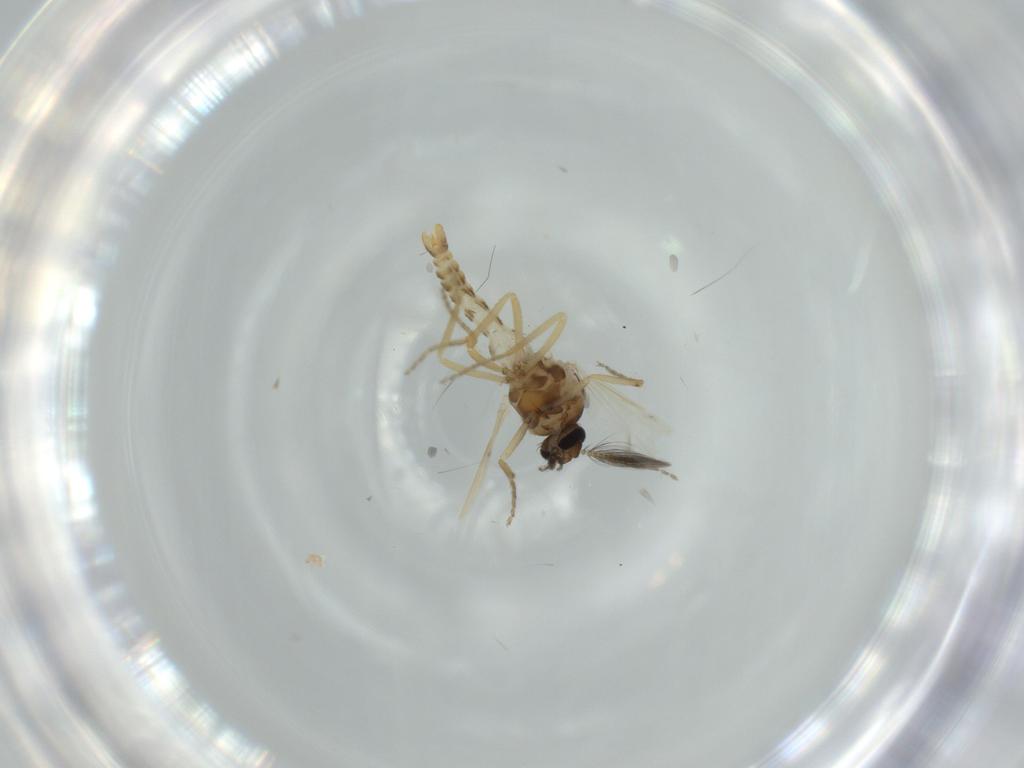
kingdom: Animalia
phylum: Arthropoda
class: Insecta
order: Diptera
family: Ceratopogonidae
